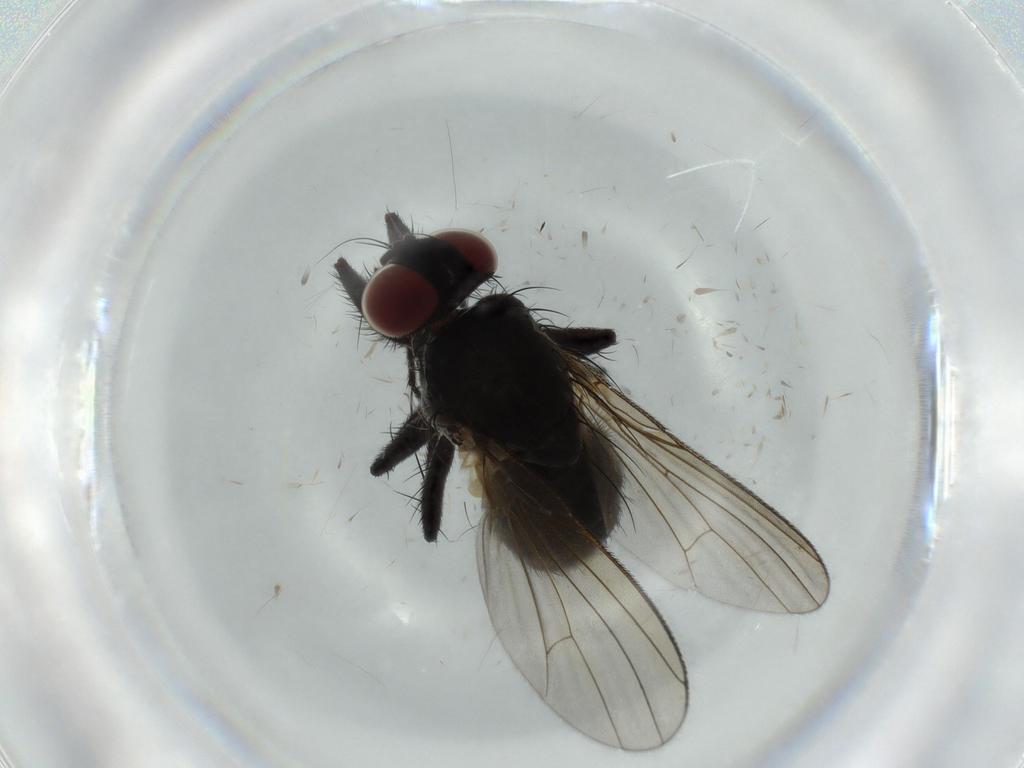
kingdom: Animalia
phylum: Arthropoda
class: Insecta
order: Diptera
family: Muscidae
